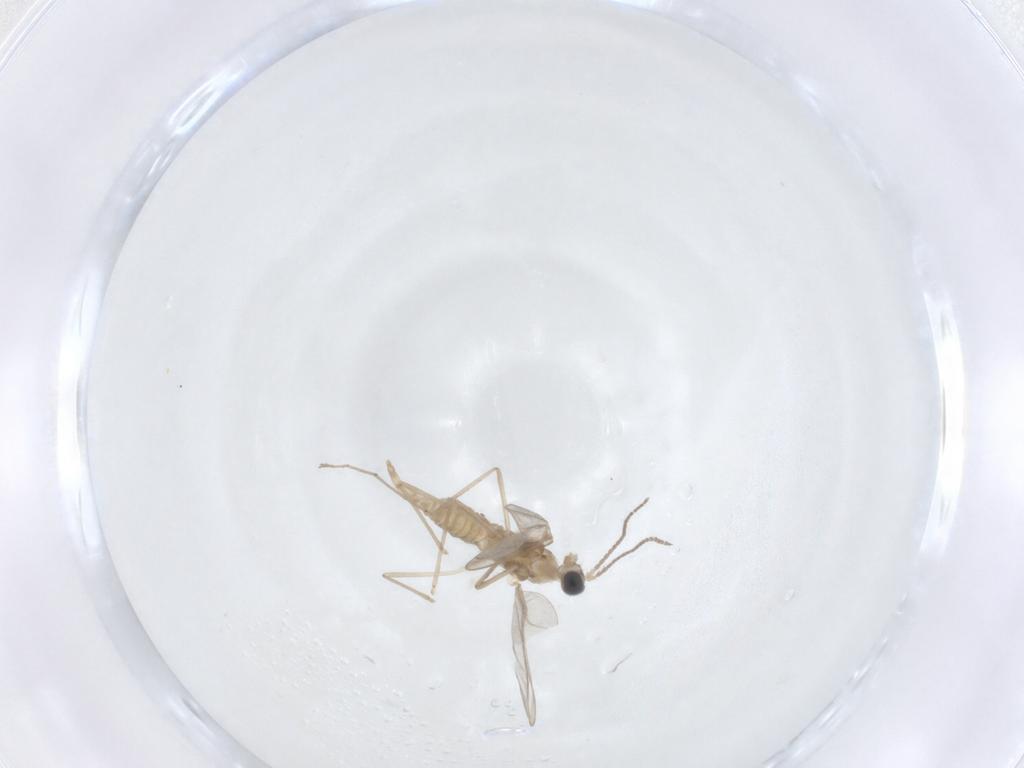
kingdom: Animalia
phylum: Arthropoda
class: Insecta
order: Diptera
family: Cecidomyiidae
